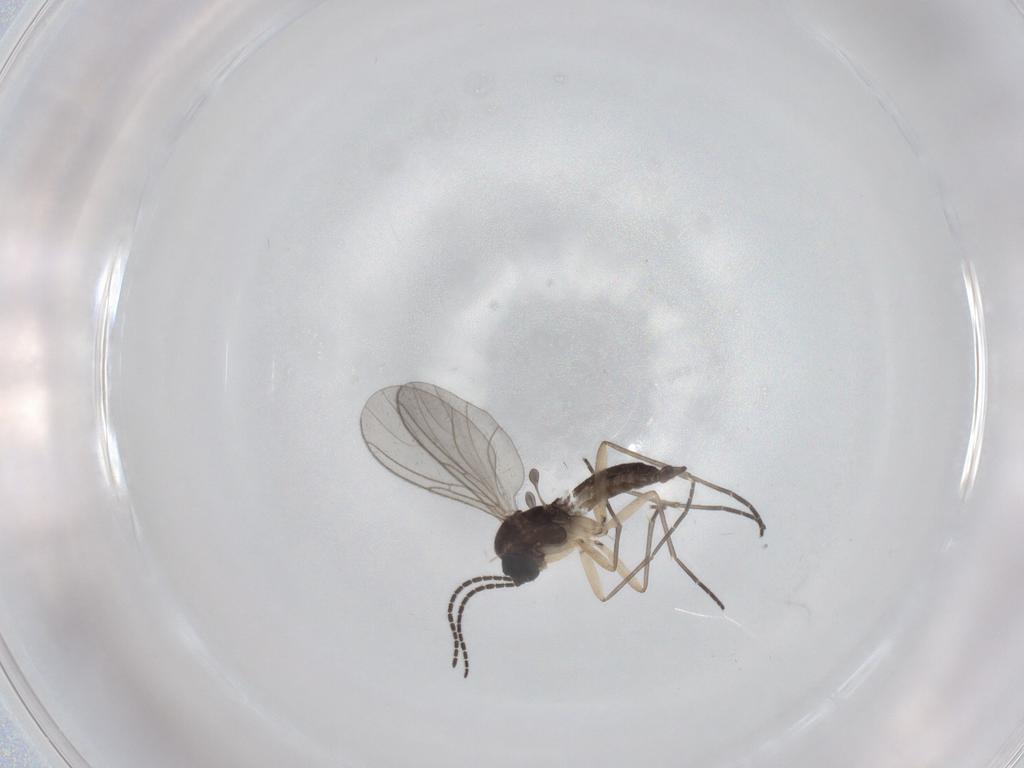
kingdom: Animalia
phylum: Arthropoda
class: Insecta
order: Diptera
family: Sciaridae
